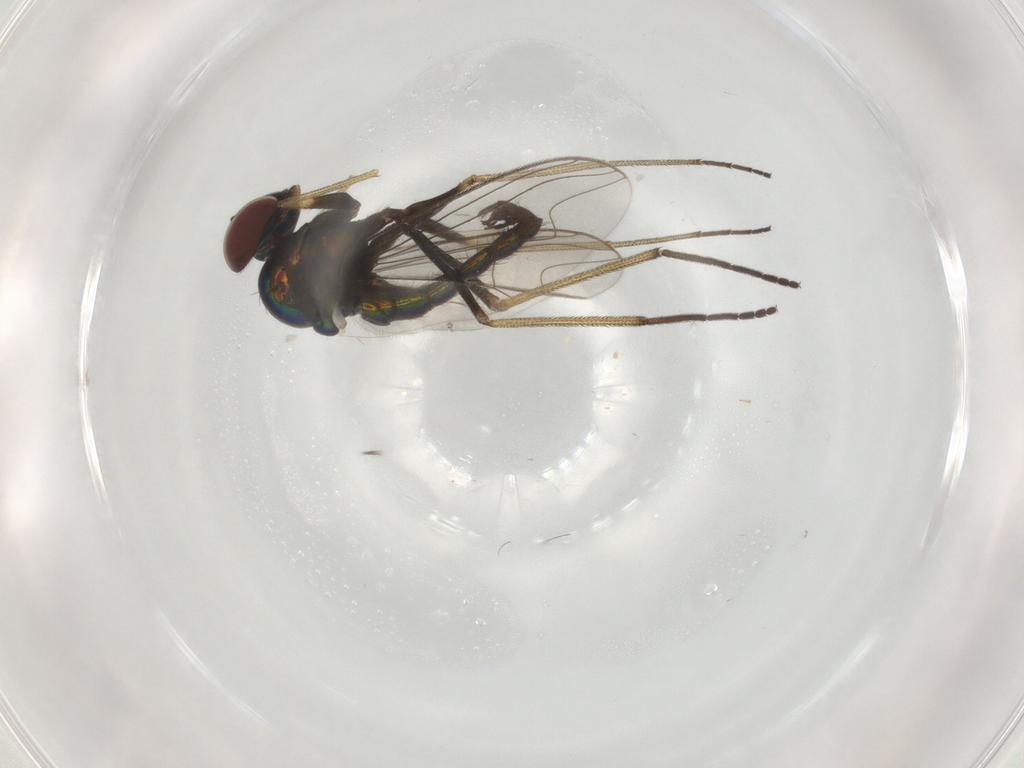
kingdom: Animalia
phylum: Arthropoda
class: Insecta
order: Diptera
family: Dolichopodidae
